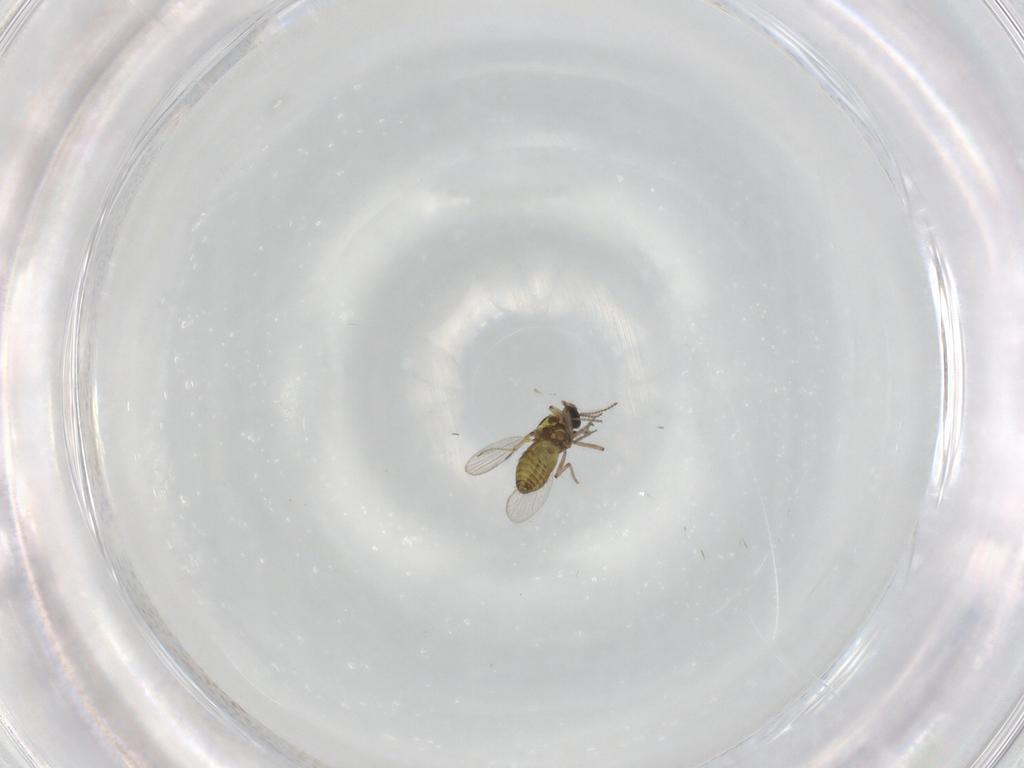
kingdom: Animalia
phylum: Arthropoda
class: Insecta
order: Diptera
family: Ceratopogonidae
